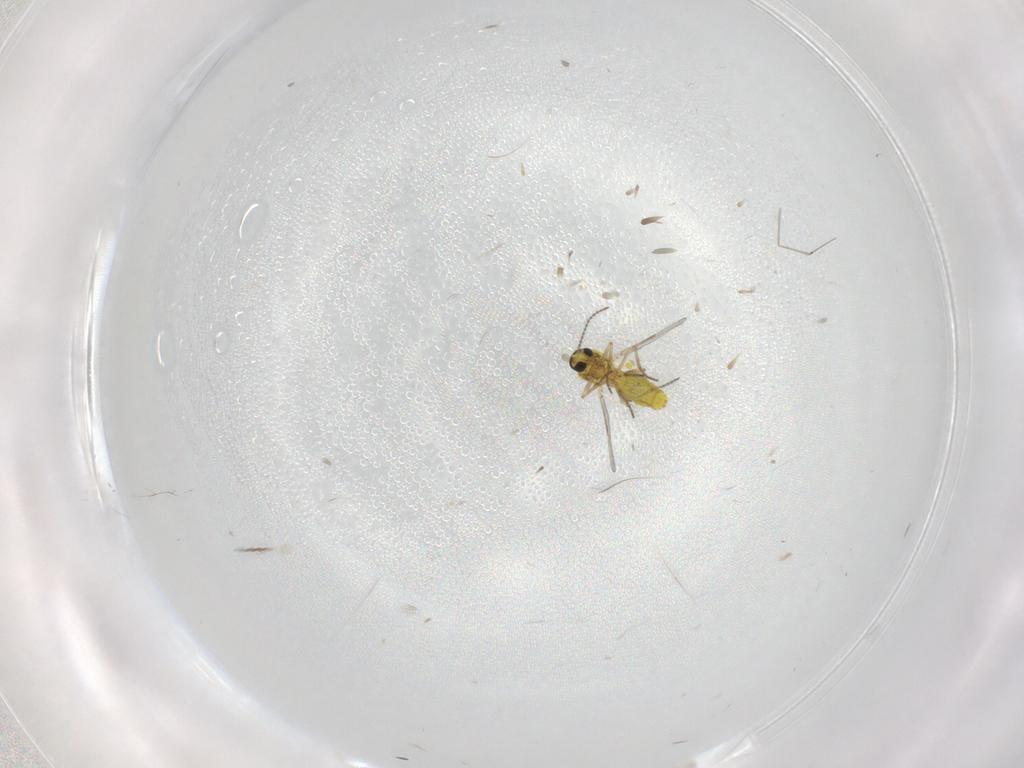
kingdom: Animalia
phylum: Arthropoda
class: Insecta
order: Diptera
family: Ceratopogonidae
